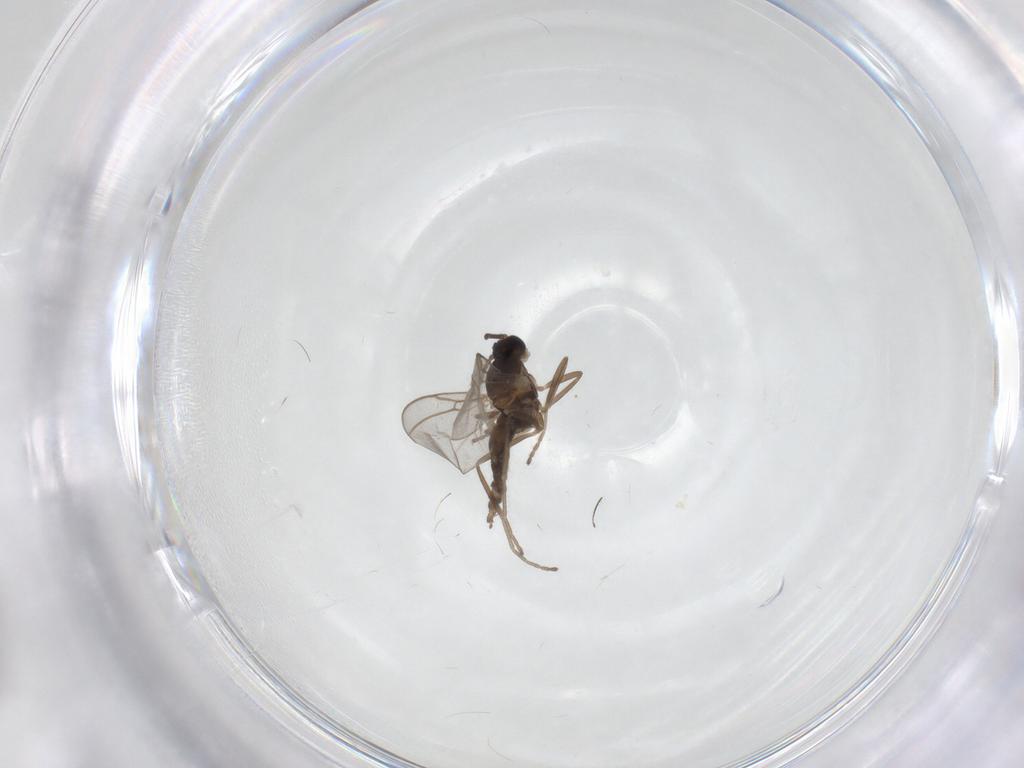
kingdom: Animalia
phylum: Arthropoda
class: Insecta
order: Diptera
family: Cecidomyiidae
